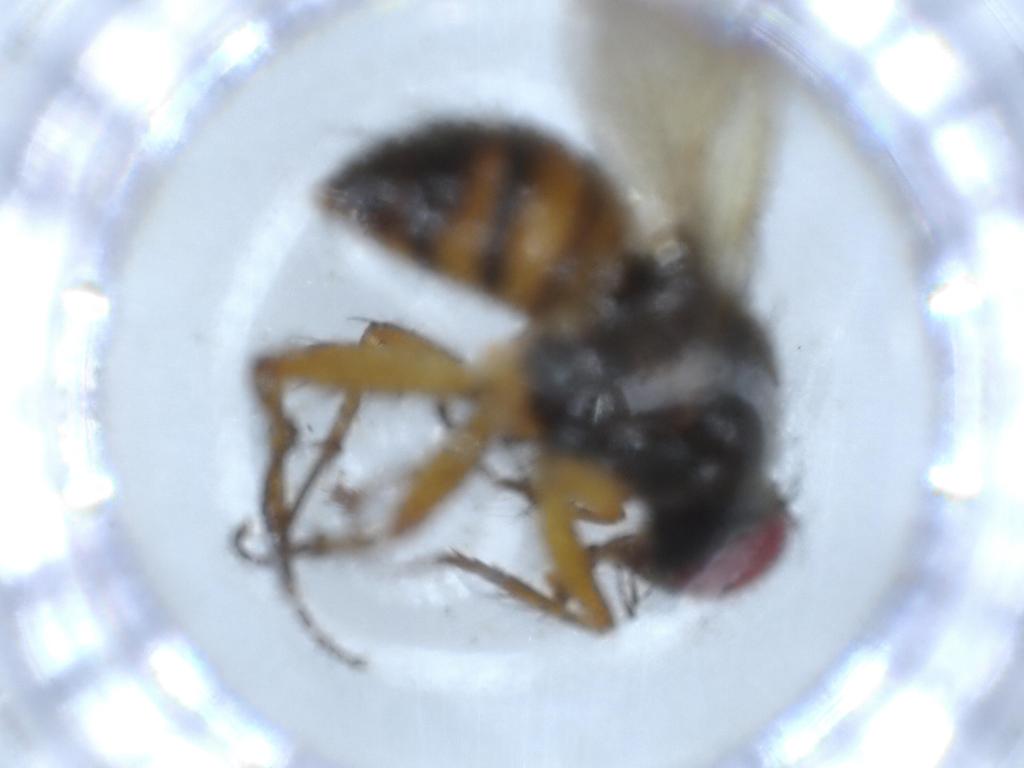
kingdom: Animalia
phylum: Arthropoda
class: Insecta
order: Diptera
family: Muscidae
